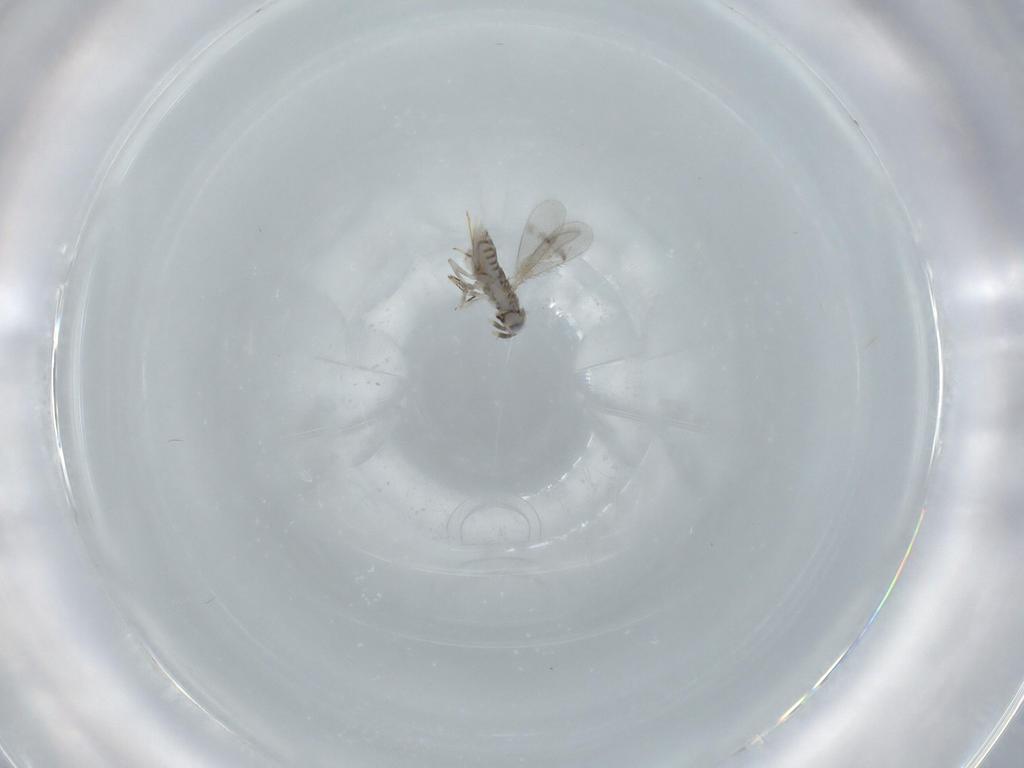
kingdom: Animalia
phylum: Arthropoda
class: Insecta
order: Hymenoptera
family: Aphelinidae
